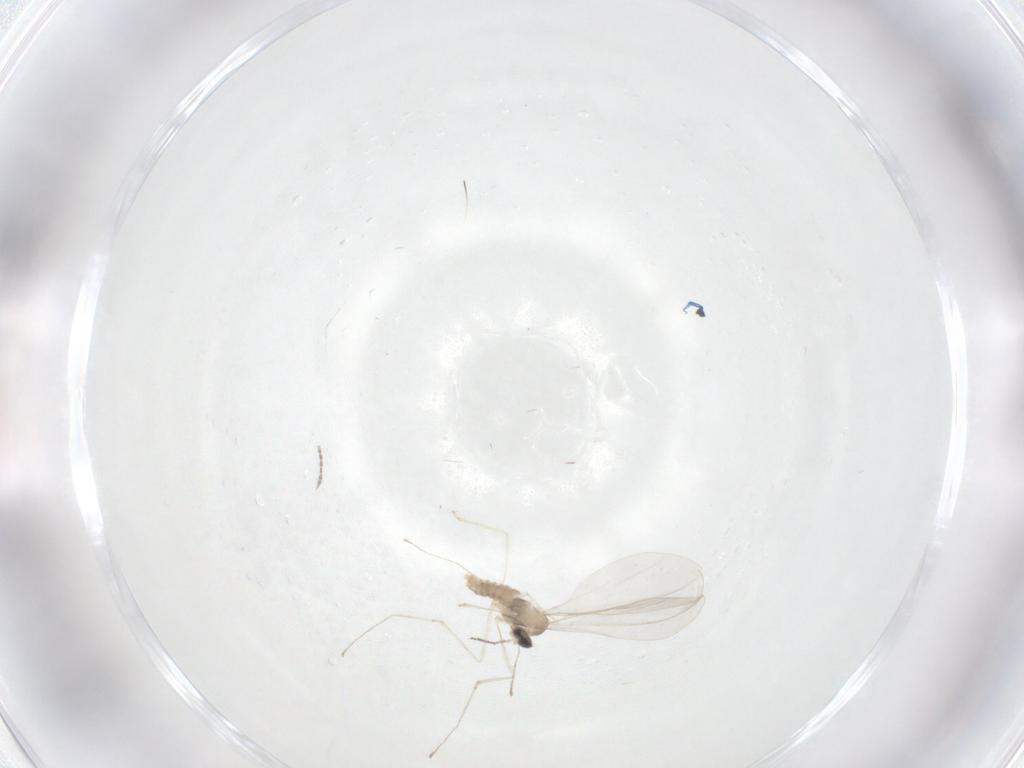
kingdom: Animalia
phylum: Arthropoda
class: Insecta
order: Diptera
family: Cecidomyiidae
